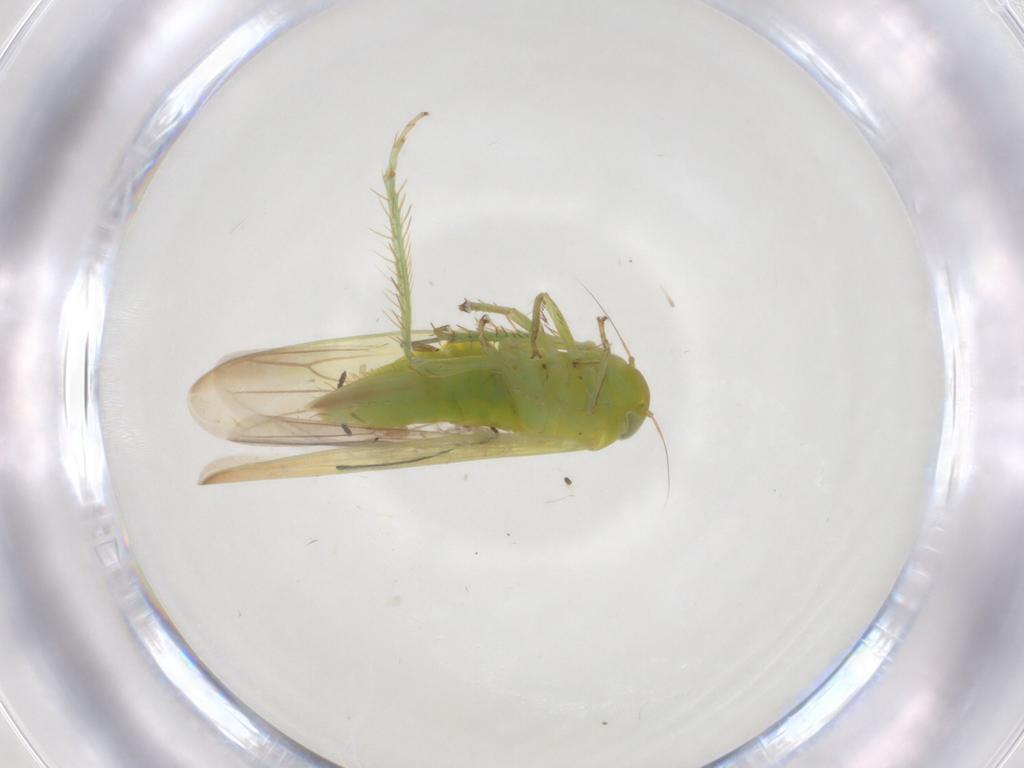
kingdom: Animalia
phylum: Arthropoda
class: Insecta
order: Hemiptera
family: Cicadellidae
